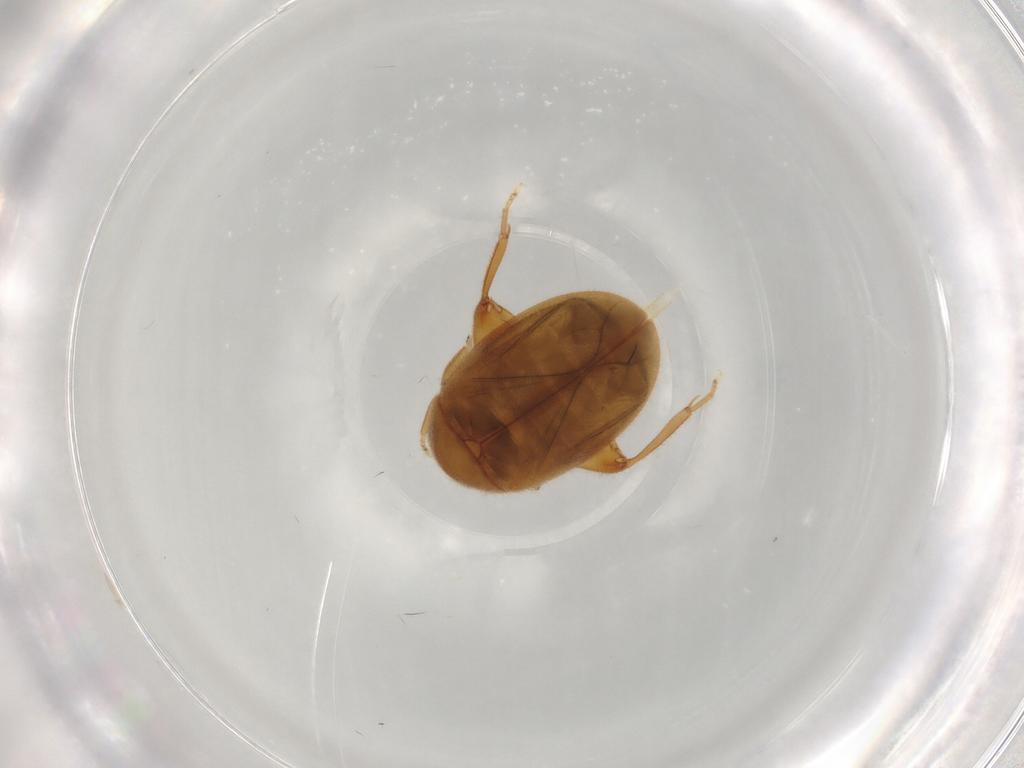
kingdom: Animalia
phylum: Arthropoda
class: Insecta
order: Coleoptera
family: Scirtidae
